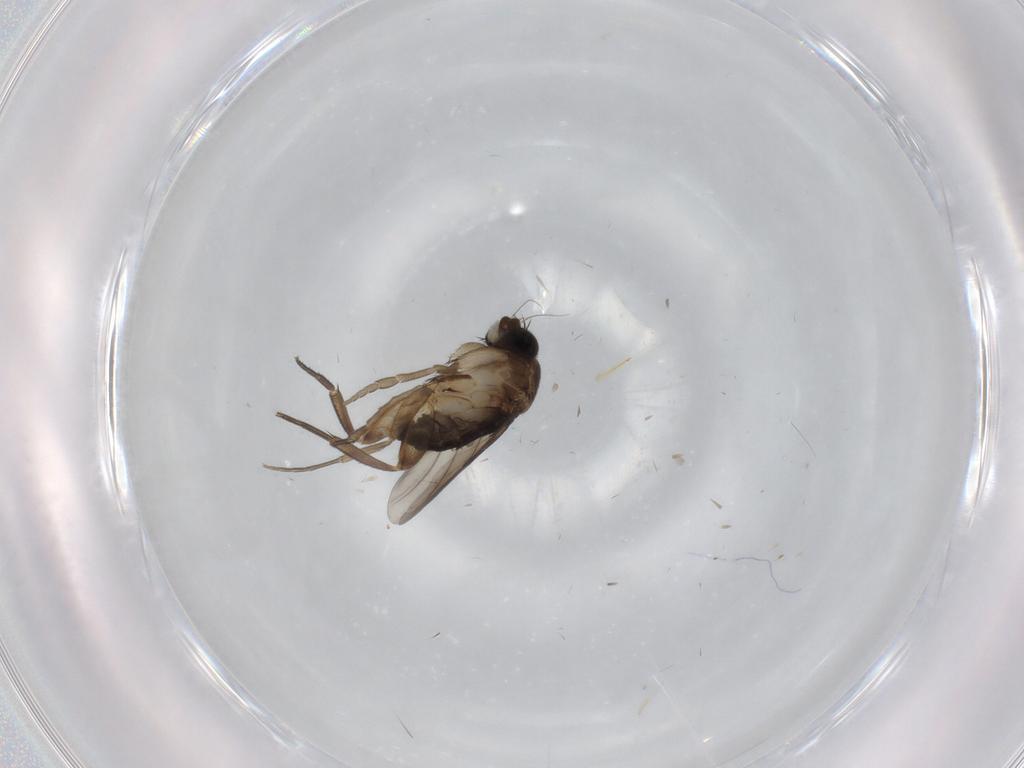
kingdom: Animalia
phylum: Arthropoda
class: Insecta
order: Diptera
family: Phoridae
